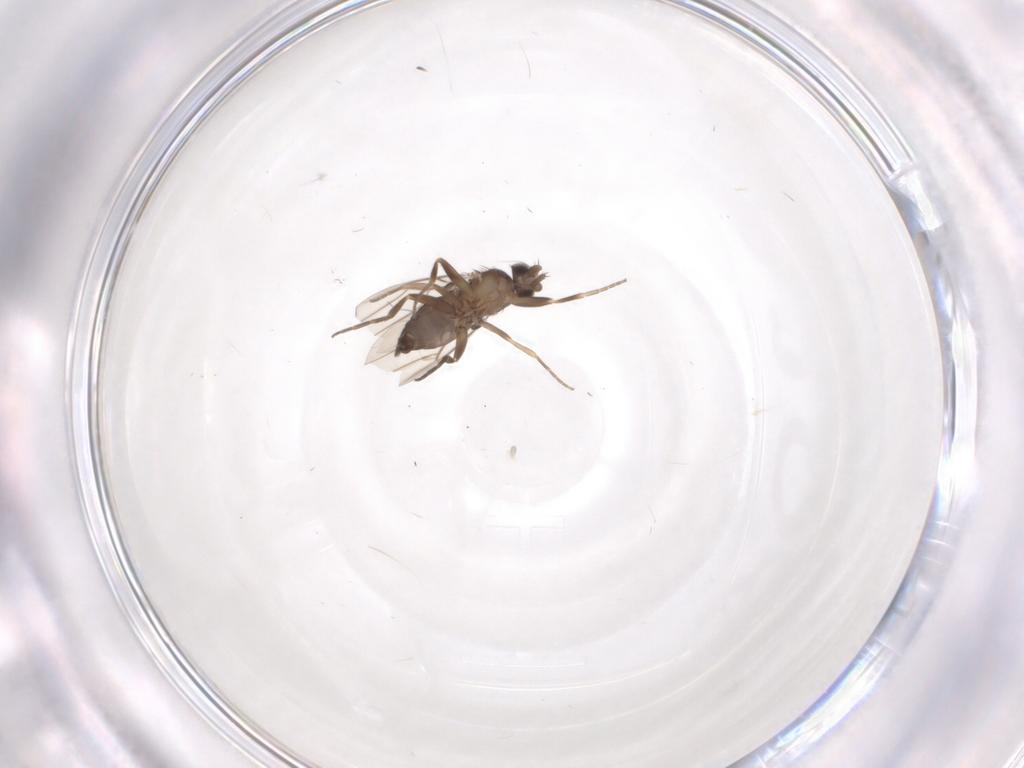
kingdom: Animalia
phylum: Arthropoda
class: Insecta
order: Diptera
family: Phoridae
